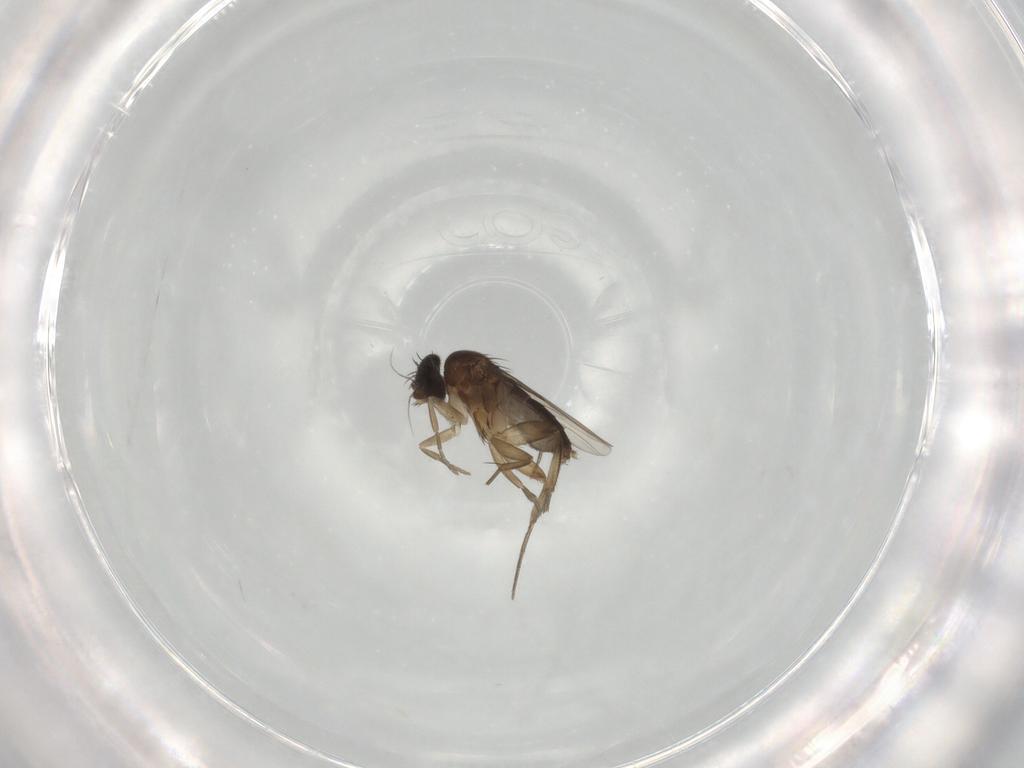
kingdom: Animalia
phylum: Arthropoda
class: Insecta
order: Diptera
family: Phoridae
